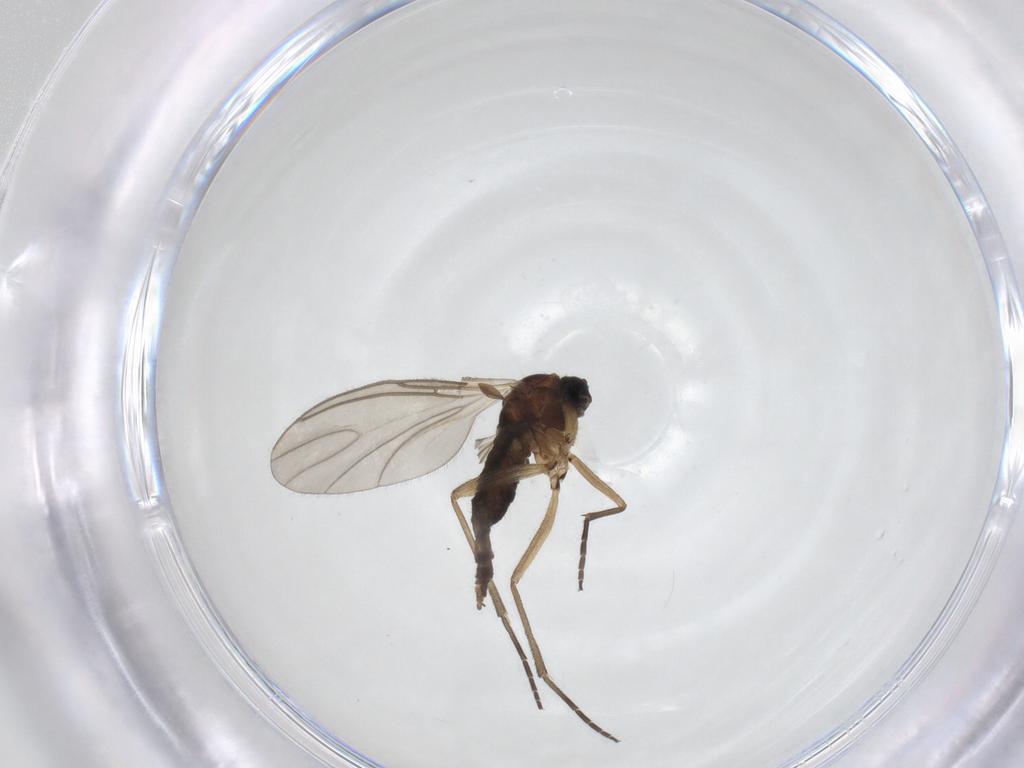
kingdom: Animalia
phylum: Arthropoda
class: Insecta
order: Diptera
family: Sciaridae
